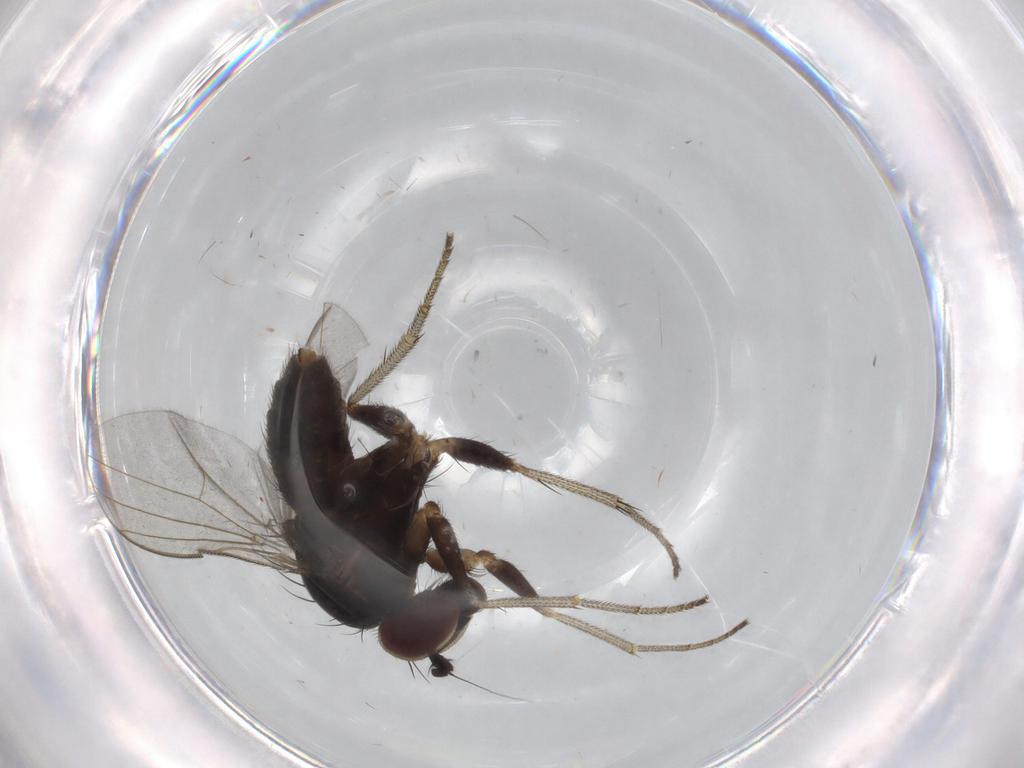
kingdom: Animalia
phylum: Arthropoda
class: Insecta
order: Diptera
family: Dolichopodidae
